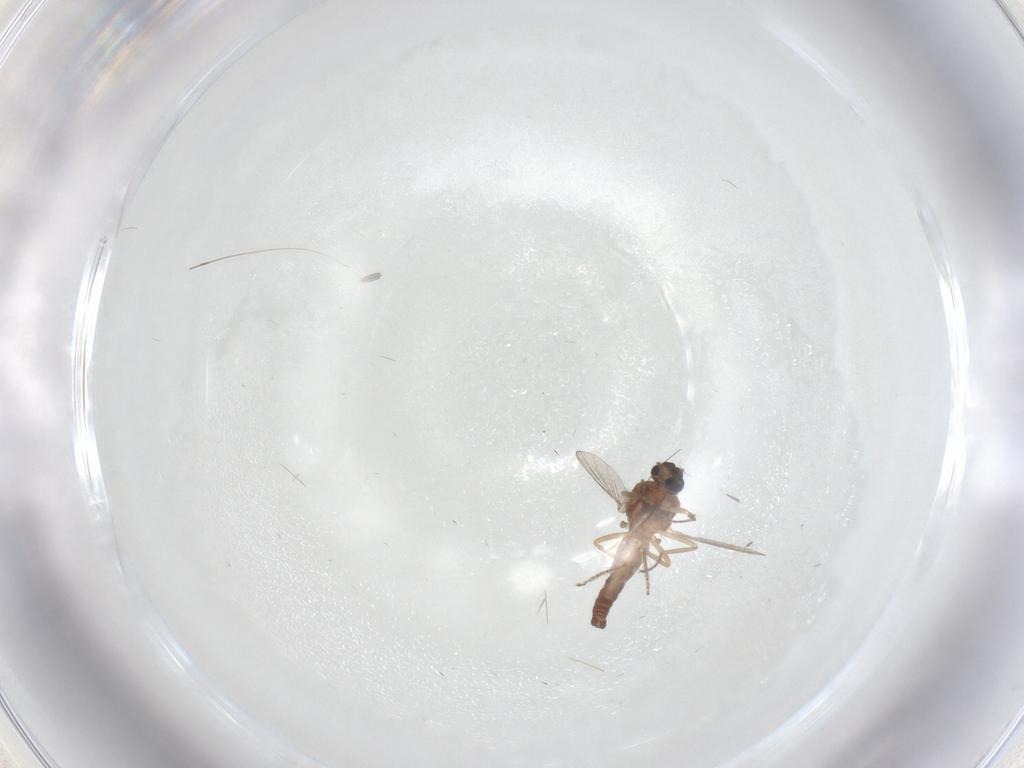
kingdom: Animalia
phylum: Arthropoda
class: Insecta
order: Diptera
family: Ceratopogonidae
